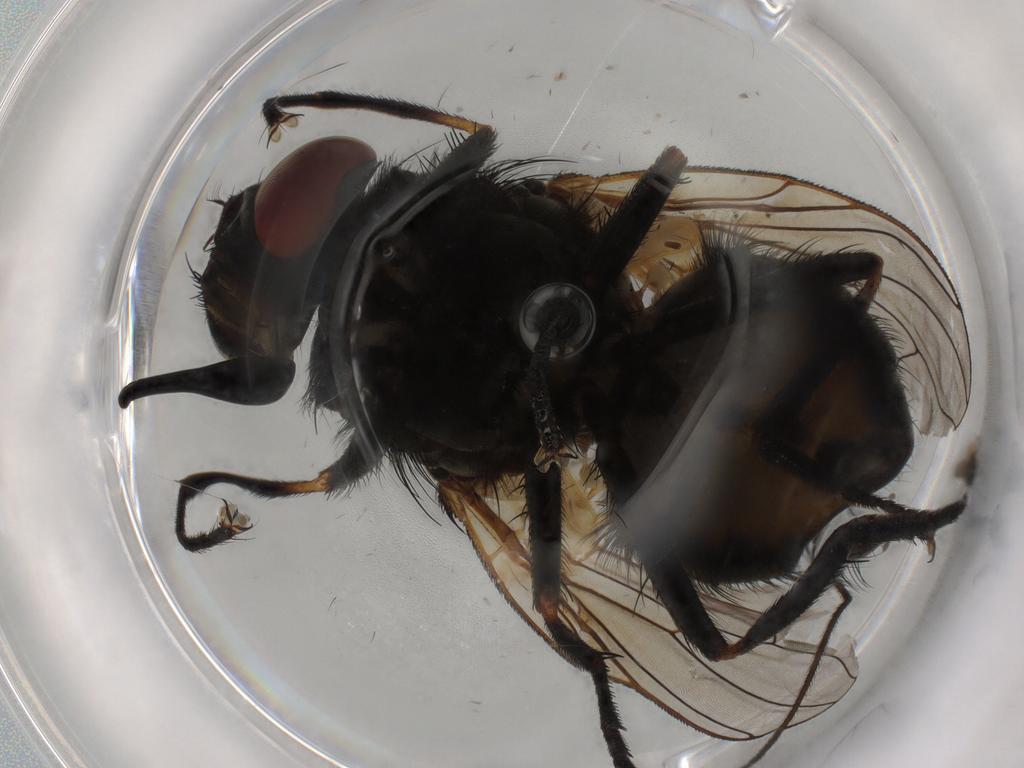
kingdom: Animalia
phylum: Arthropoda
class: Insecta
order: Diptera
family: Muscidae
